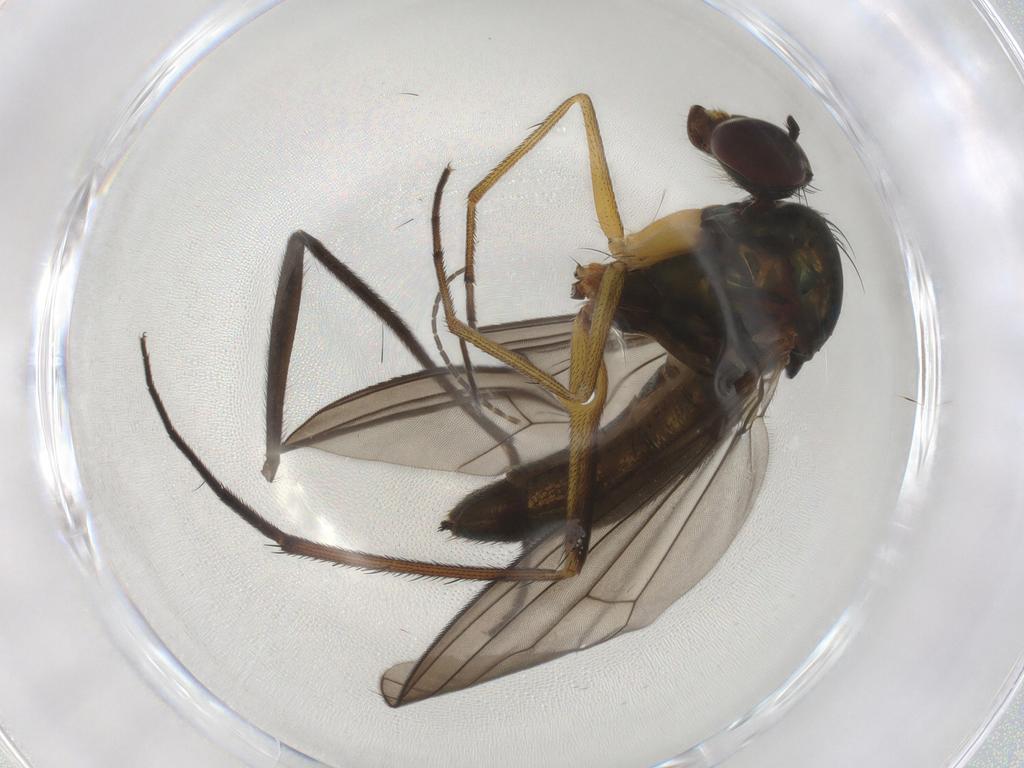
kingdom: Animalia
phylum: Arthropoda
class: Insecta
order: Diptera
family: Dolichopodidae
